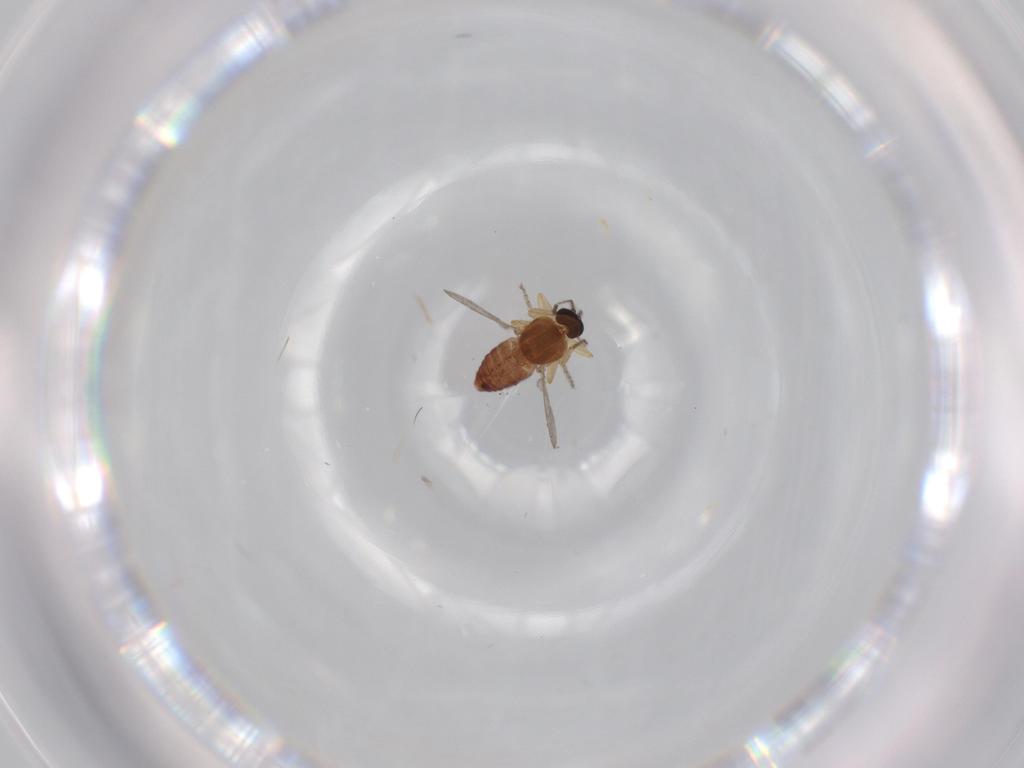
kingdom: Animalia
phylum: Arthropoda
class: Insecta
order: Diptera
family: Ceratopogonidae
